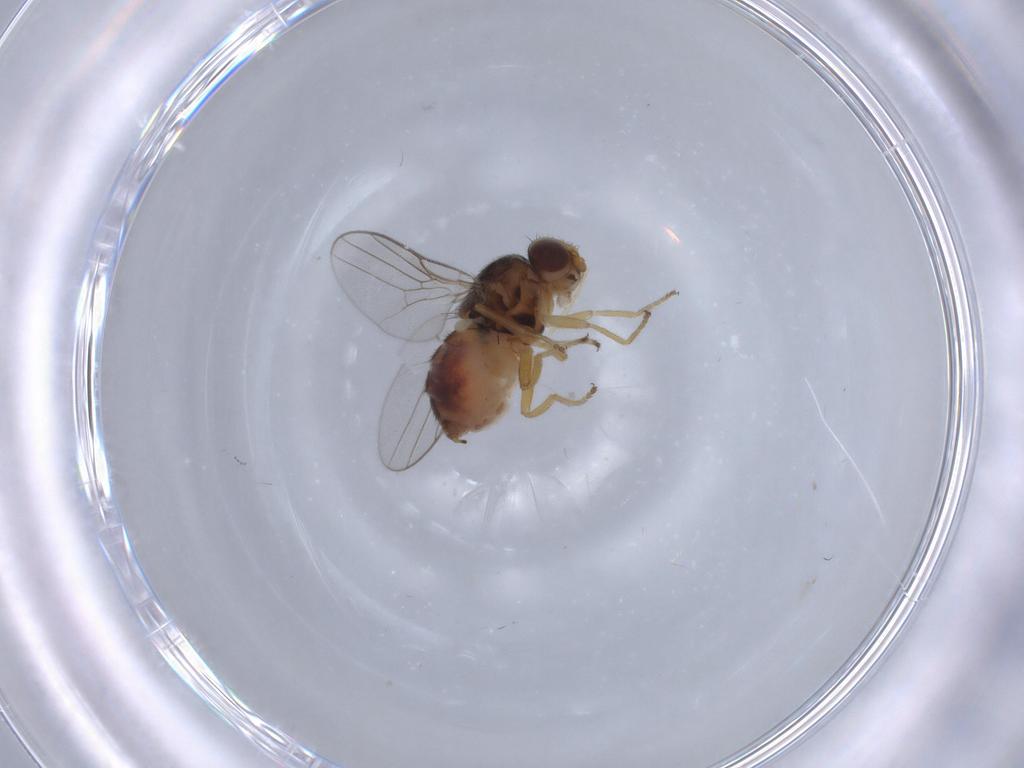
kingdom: Animalia
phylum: Arthropoda
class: Insecta
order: Diptera
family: Chloropidae
